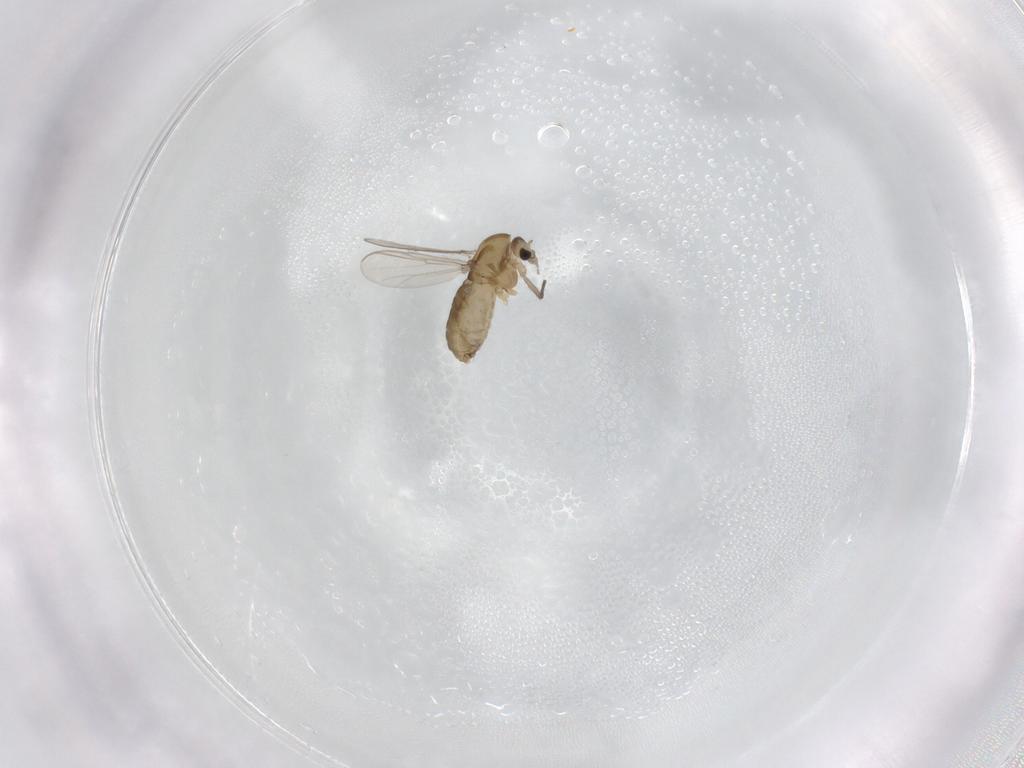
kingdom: Animalia
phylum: Arthropoda
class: Insecta
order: Diptera
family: Chironomidae
